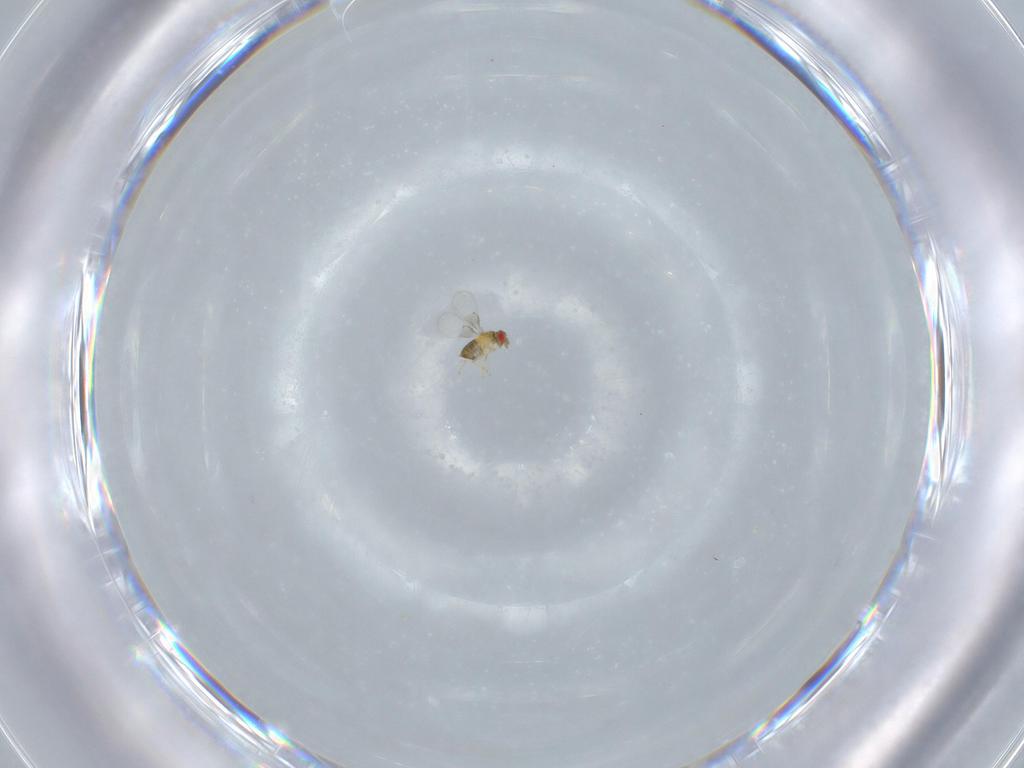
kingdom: Animalia
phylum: Arthropoda
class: Insecta
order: Hymenoptera
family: Trichogrammatidae
